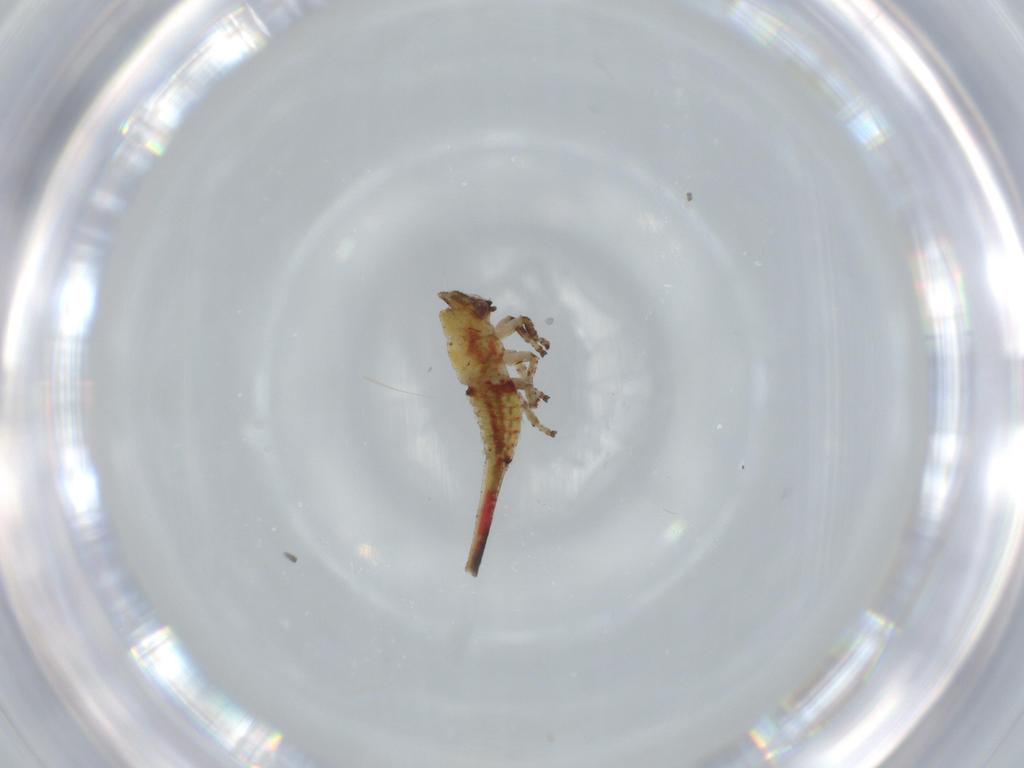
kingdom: Animalia
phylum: Arthropoda
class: Insecta
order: Hemiptera
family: Membracidae
